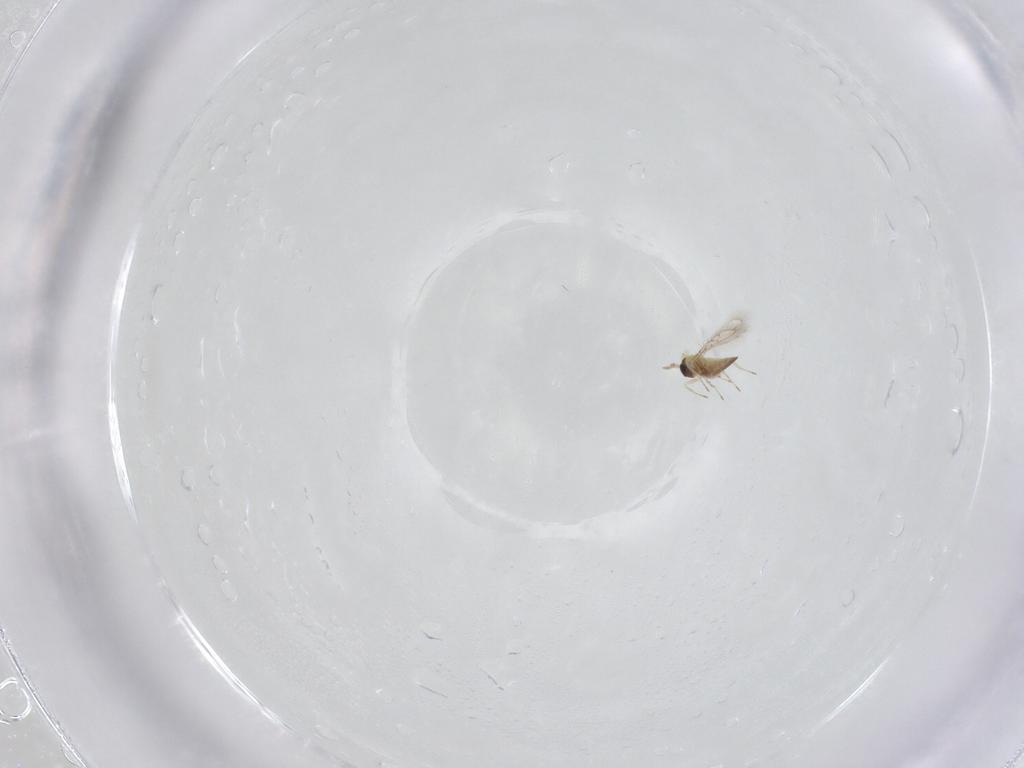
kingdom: Animalia
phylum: Arthropoda
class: Insecta
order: Hymenoptera
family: Trichogrammatidae
